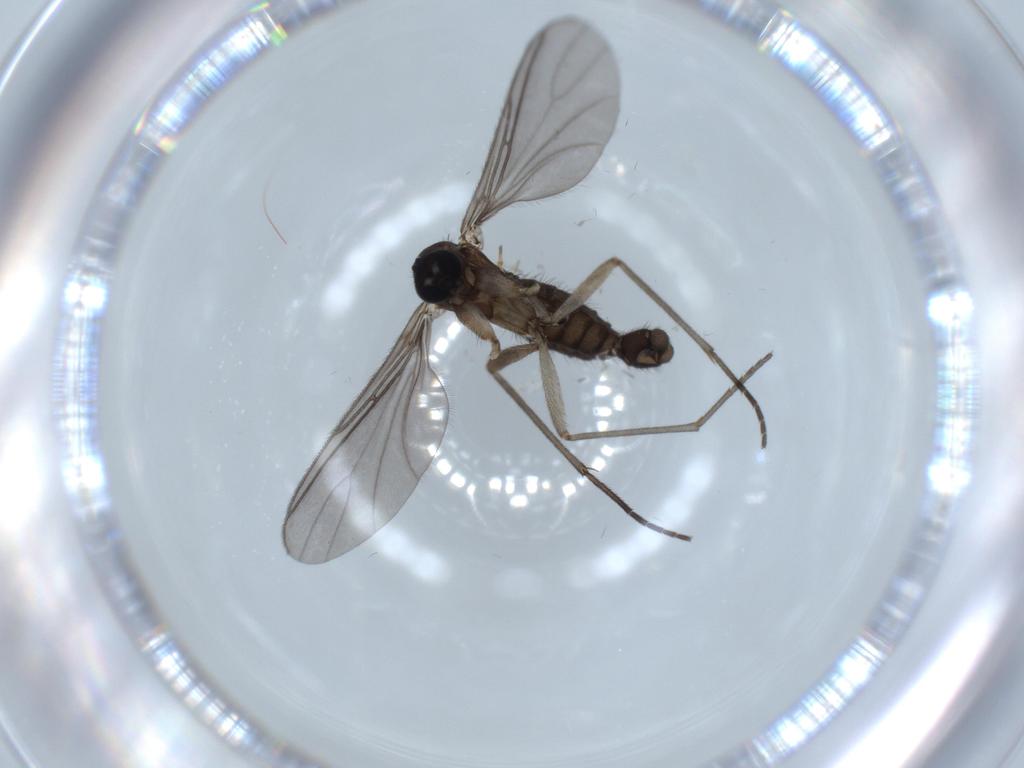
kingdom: Animalia
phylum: Arthropoda
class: Insecta
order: Diptera
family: Sciaridae
